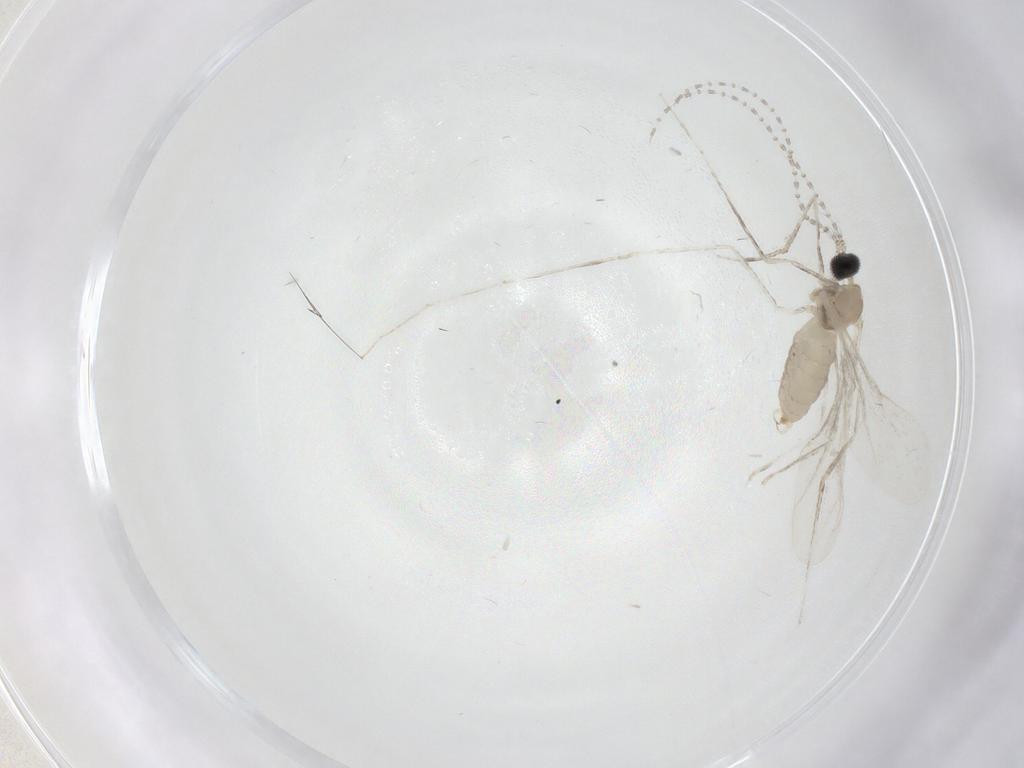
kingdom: Animalia
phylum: Arthropoda
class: Insecta
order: Diptera
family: Cecidomyiidae
